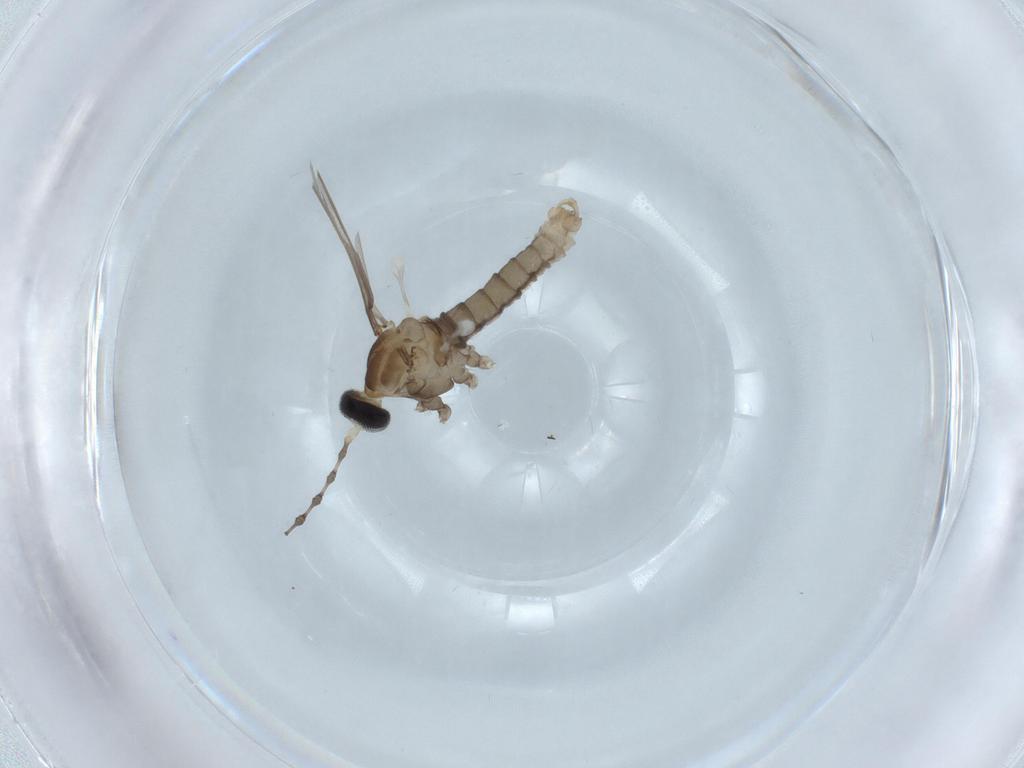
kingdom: Animalia
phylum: Arthropoda
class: Insecta
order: Diptera
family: Cecidomyiidae
